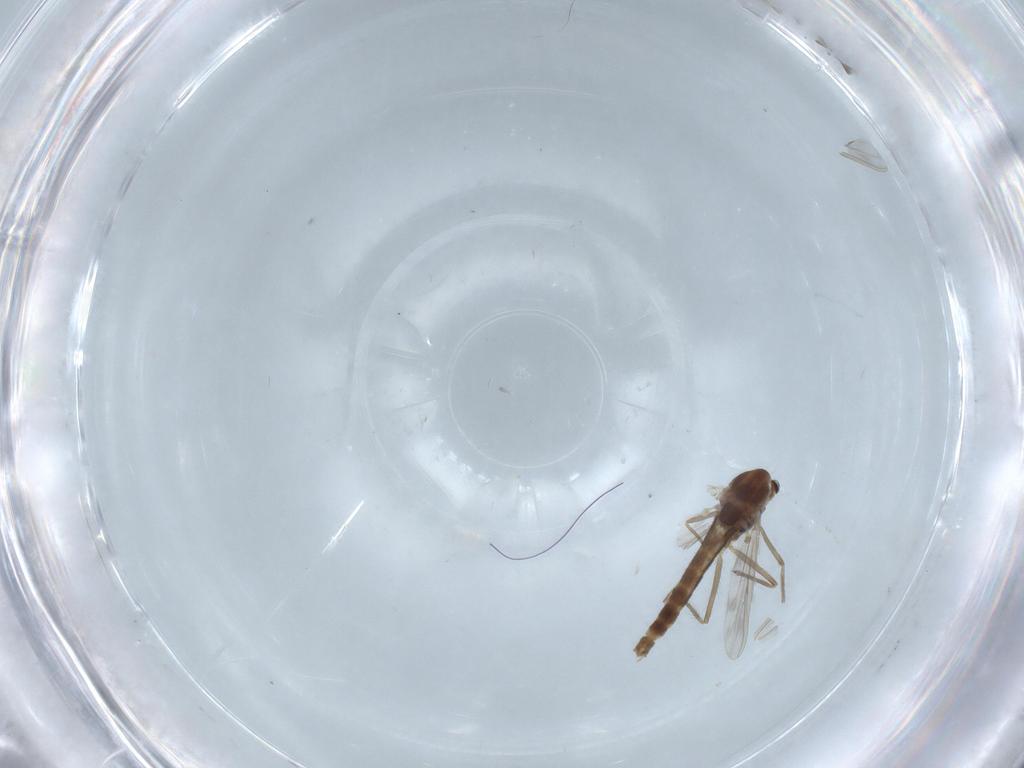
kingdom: Animalia
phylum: Arthropoda
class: Insecta
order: Diptera
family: Chironomidae
